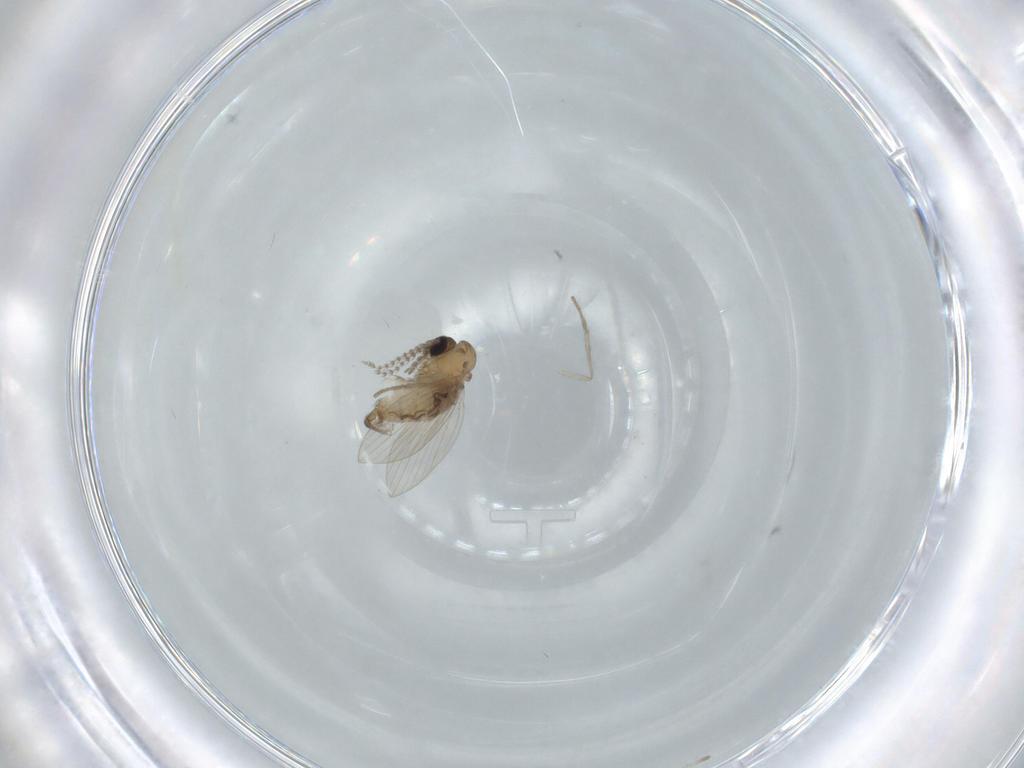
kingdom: Animalia
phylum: Arthropoda
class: Insecta
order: Diptera
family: Psychodidae
